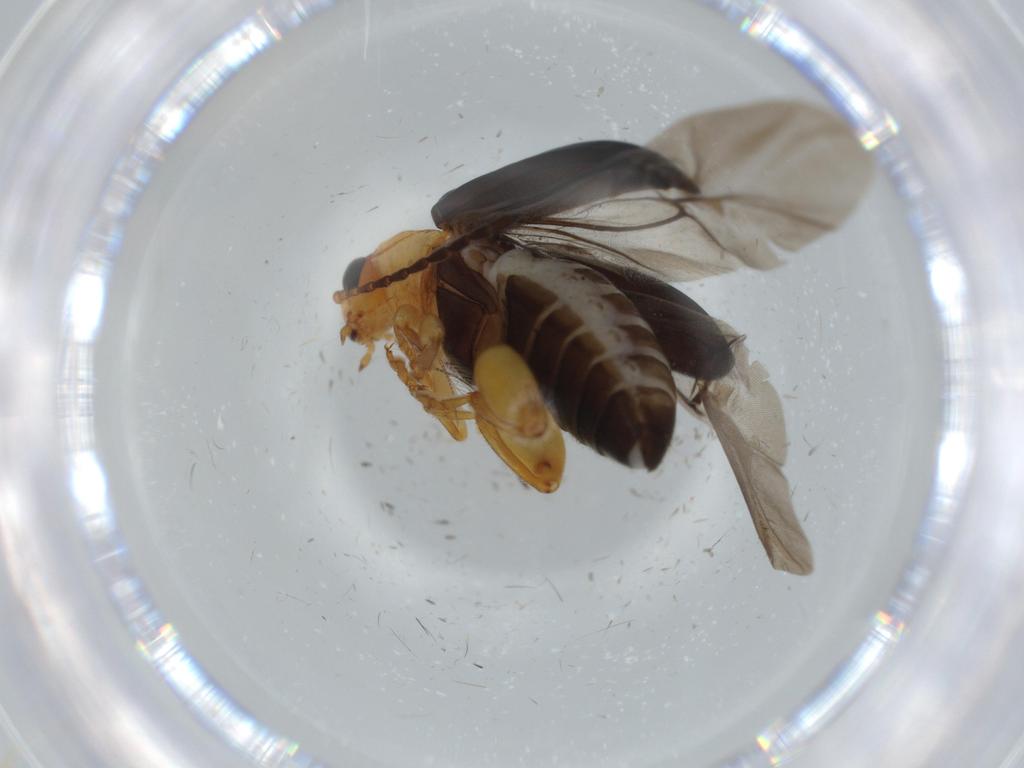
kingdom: Animalia
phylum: Arthropoda
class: Insecta
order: Coleoptera
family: Chrysomelidae
